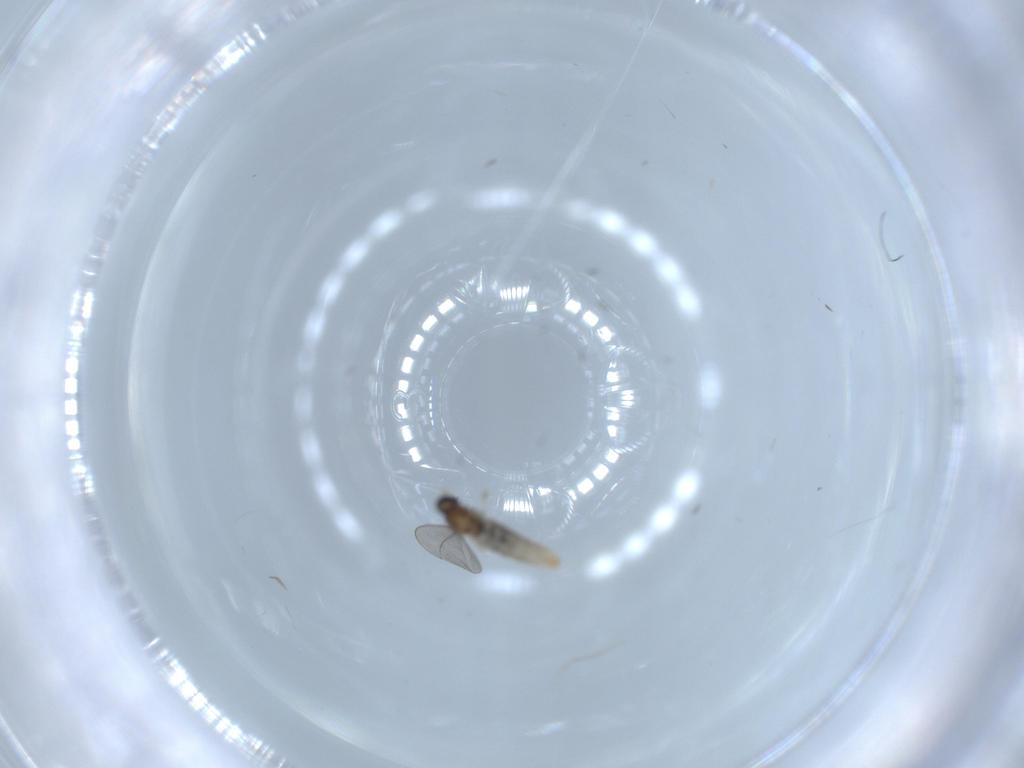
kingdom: Animalia
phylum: Arthropoda
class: Insecta
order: Diptera
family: Cecidomyiidae
